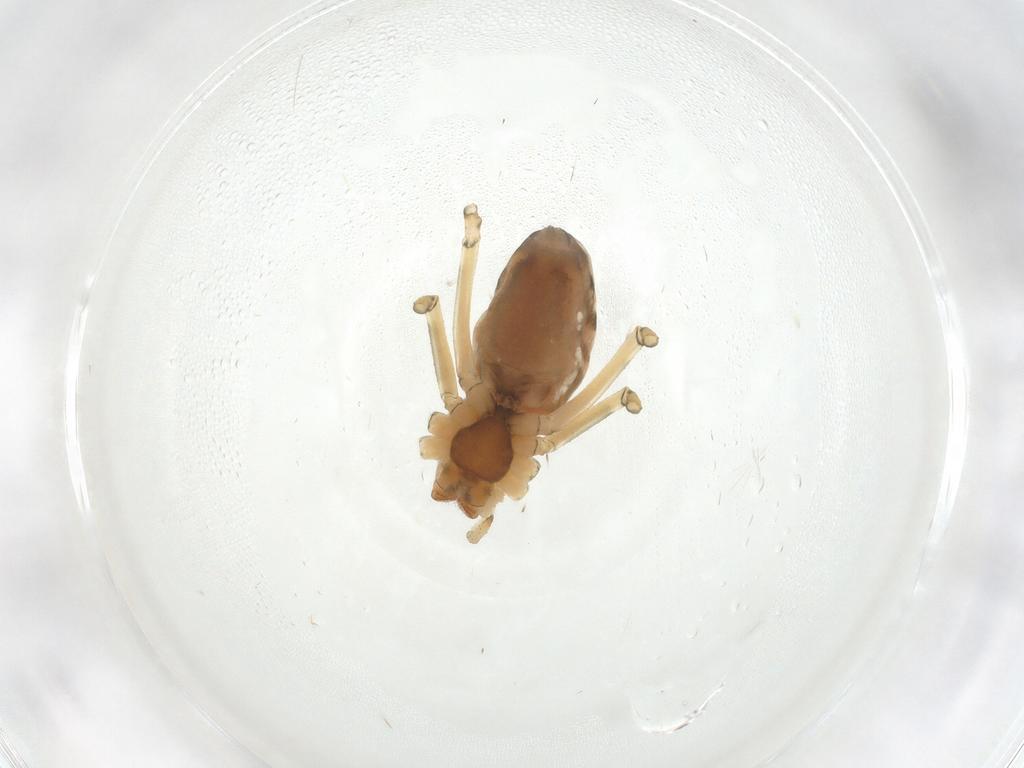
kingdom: Animalia
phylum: Arthropoda
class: Arachnida
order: Araneae
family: Linyphiidae
